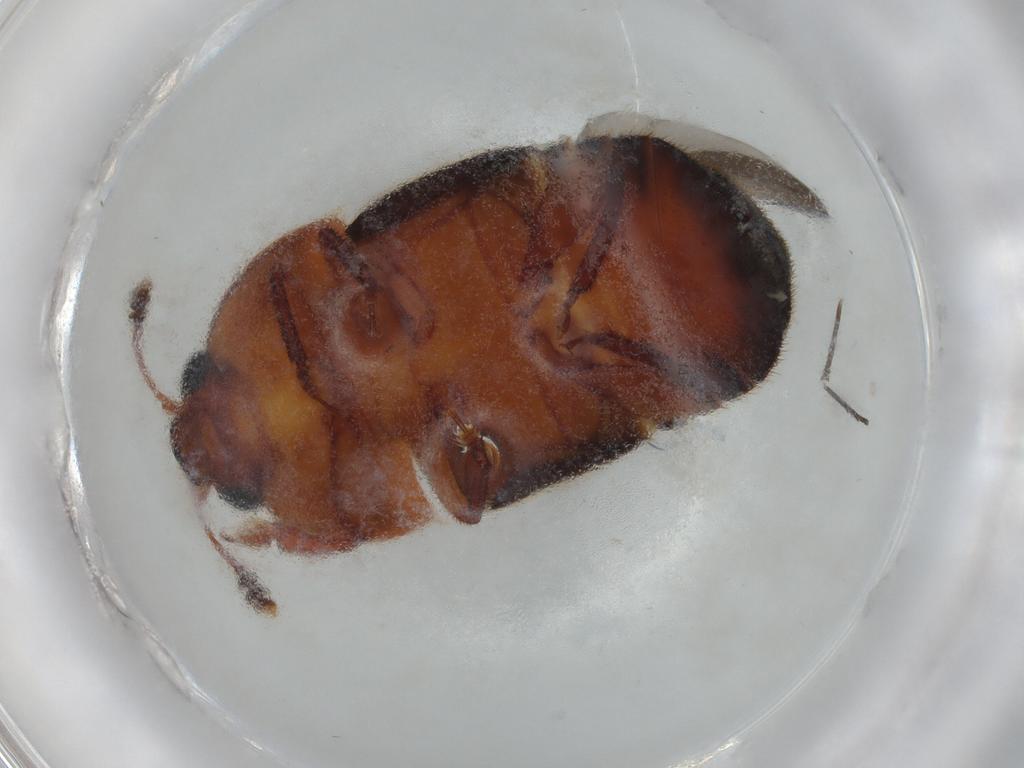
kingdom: Animalia
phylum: Arthropoda
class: Insecta
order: Coleoptera
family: Nitidulidae
